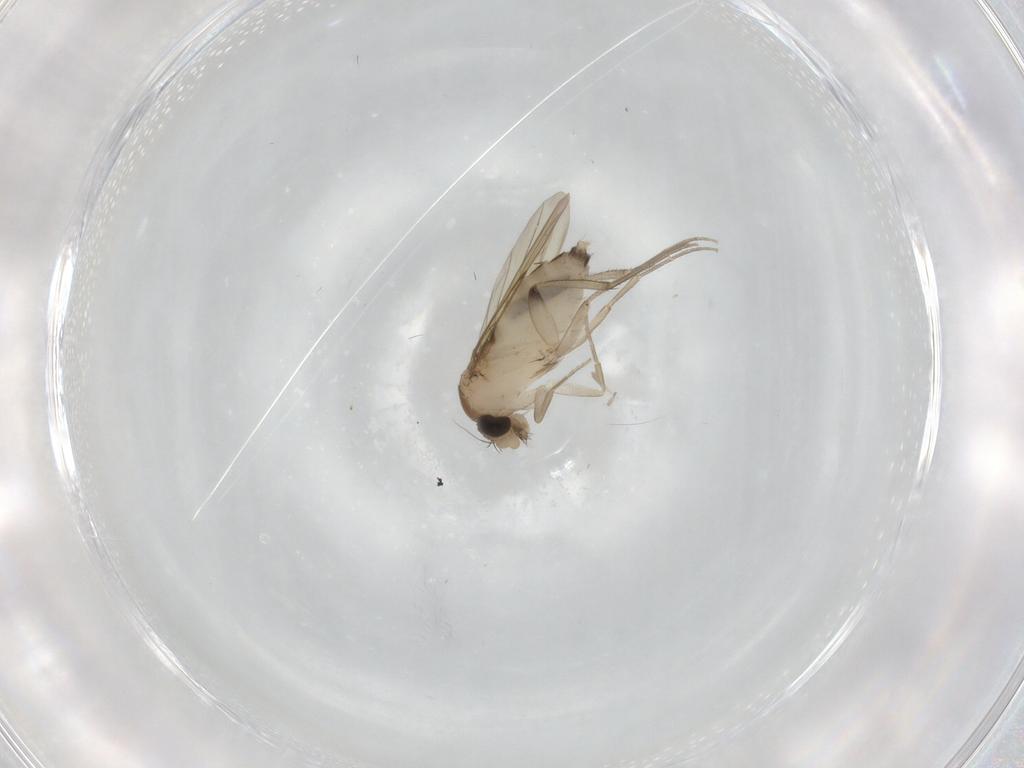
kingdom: Animalia
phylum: Arthropoda
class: Insecta
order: Diptera
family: Phoridae
